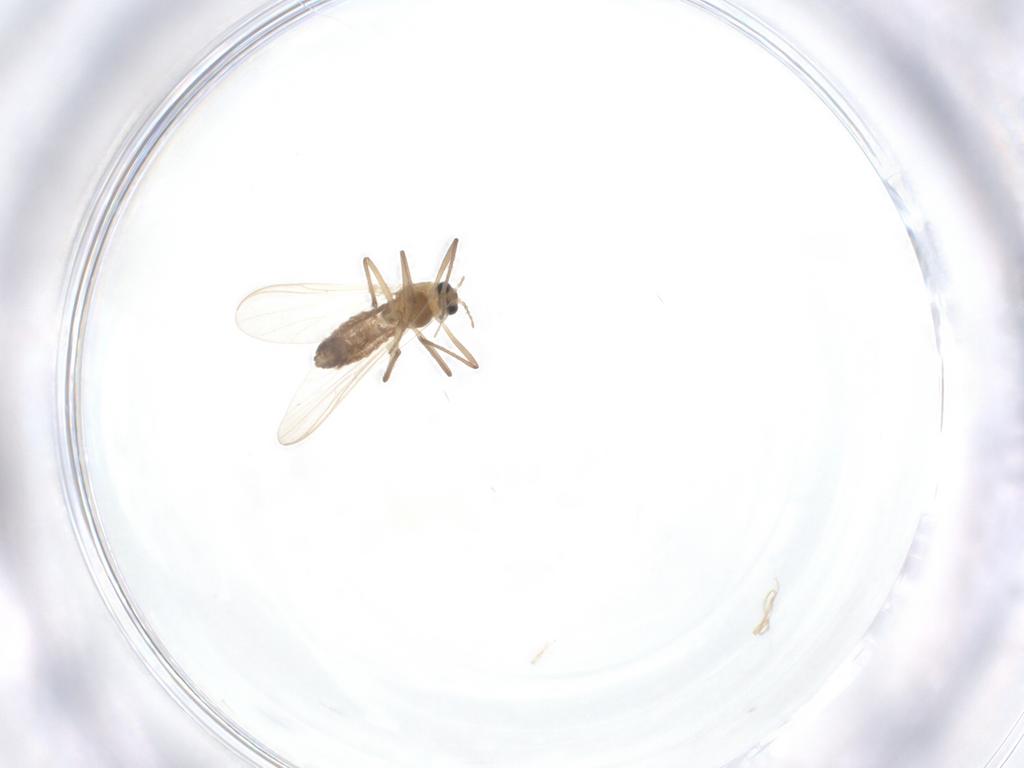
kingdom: Animalia
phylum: Arthropoda
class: Insecta
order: Diptera
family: Chironomidae
